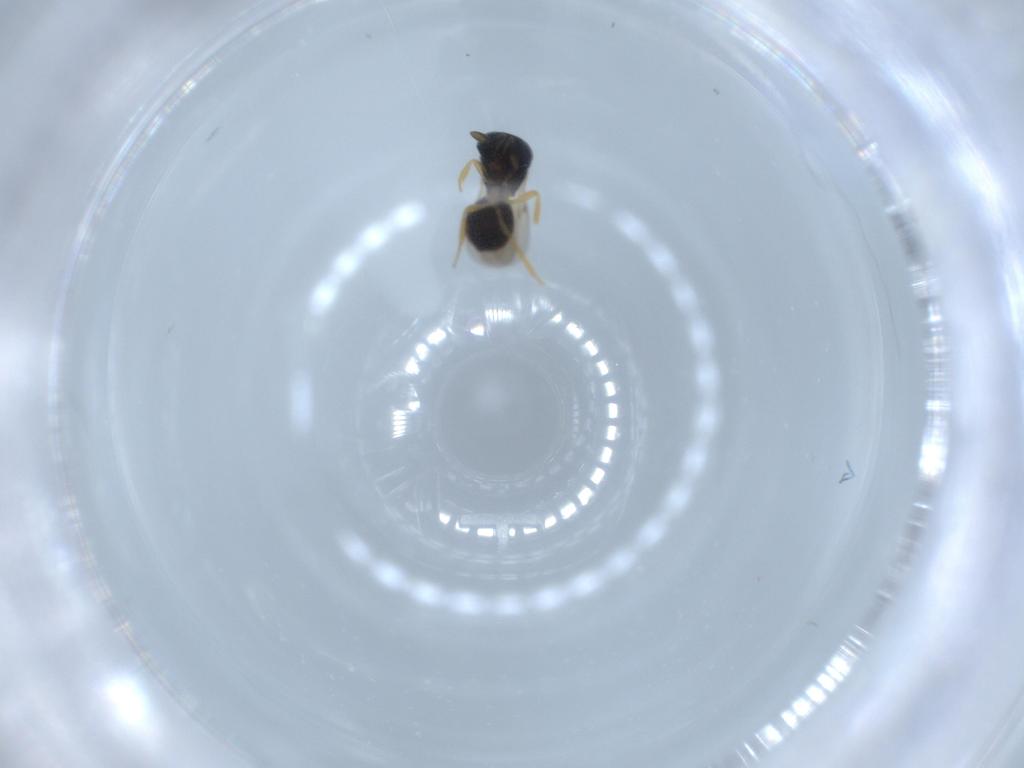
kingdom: Animalia
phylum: Arthropoda
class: Insecta
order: Hymenoptera
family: Scelionidae
